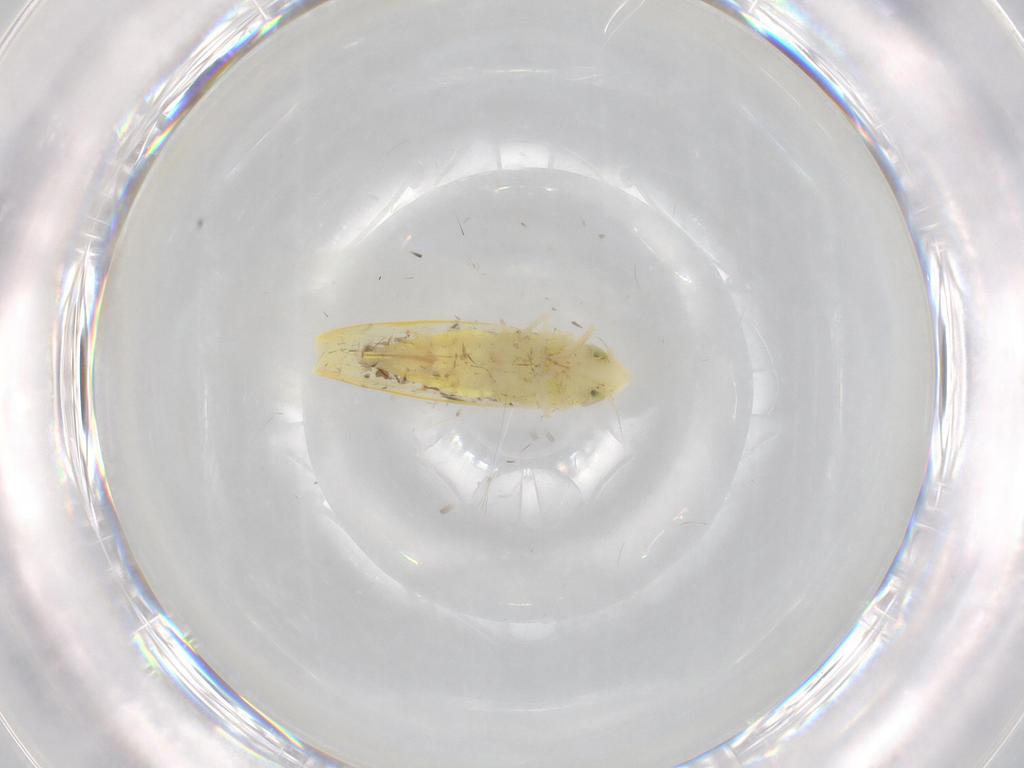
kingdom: Animalia
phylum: Arthropoda
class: Insecta
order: Hemiptera
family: Cicadellidae
